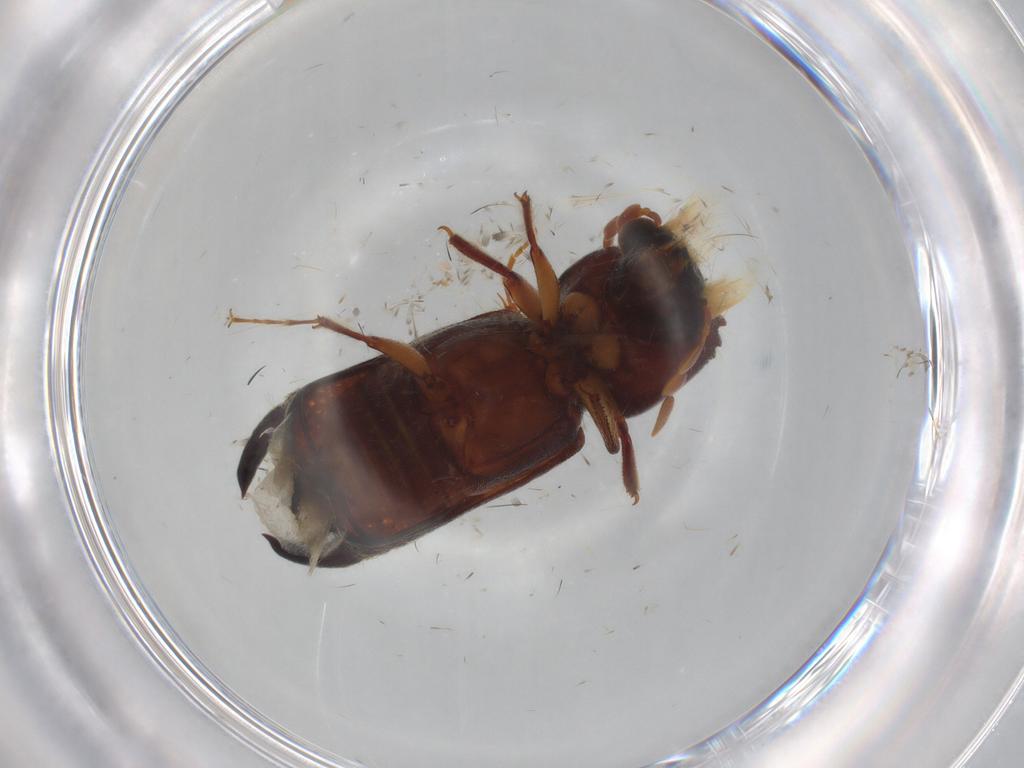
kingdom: Animalia
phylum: Arthropoda
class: Insecta
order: Coleoptera
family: Bostrichidae
